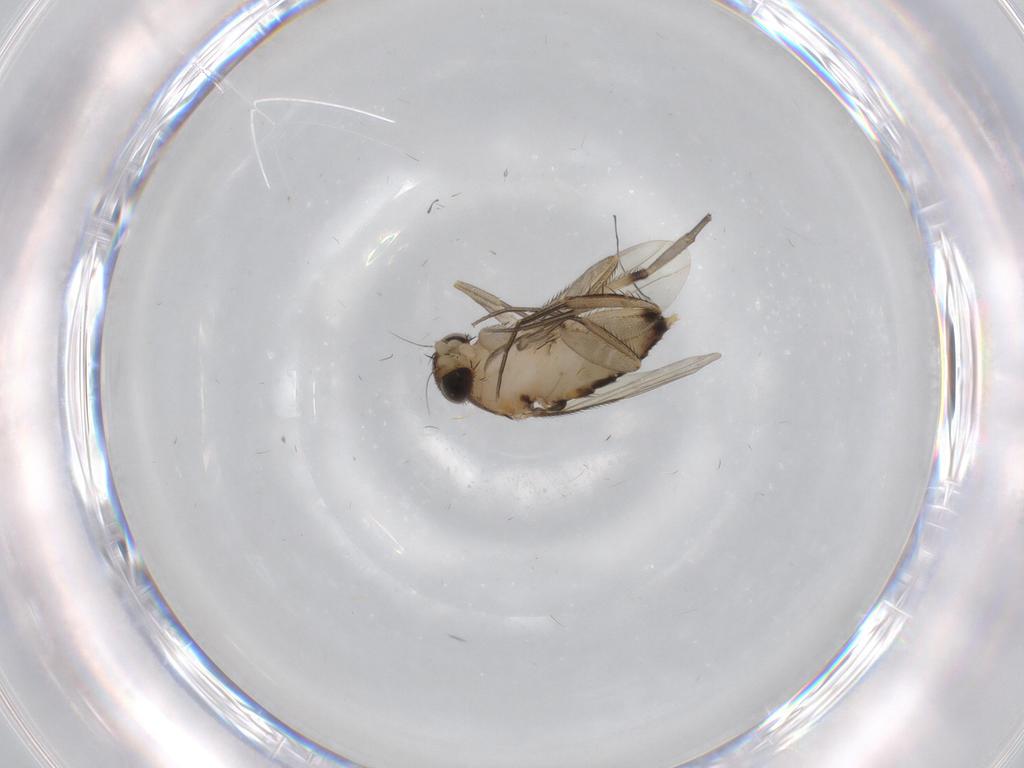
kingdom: Animalia
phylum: Arthropoda
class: Insecta
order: Diptera
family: Phoridae
